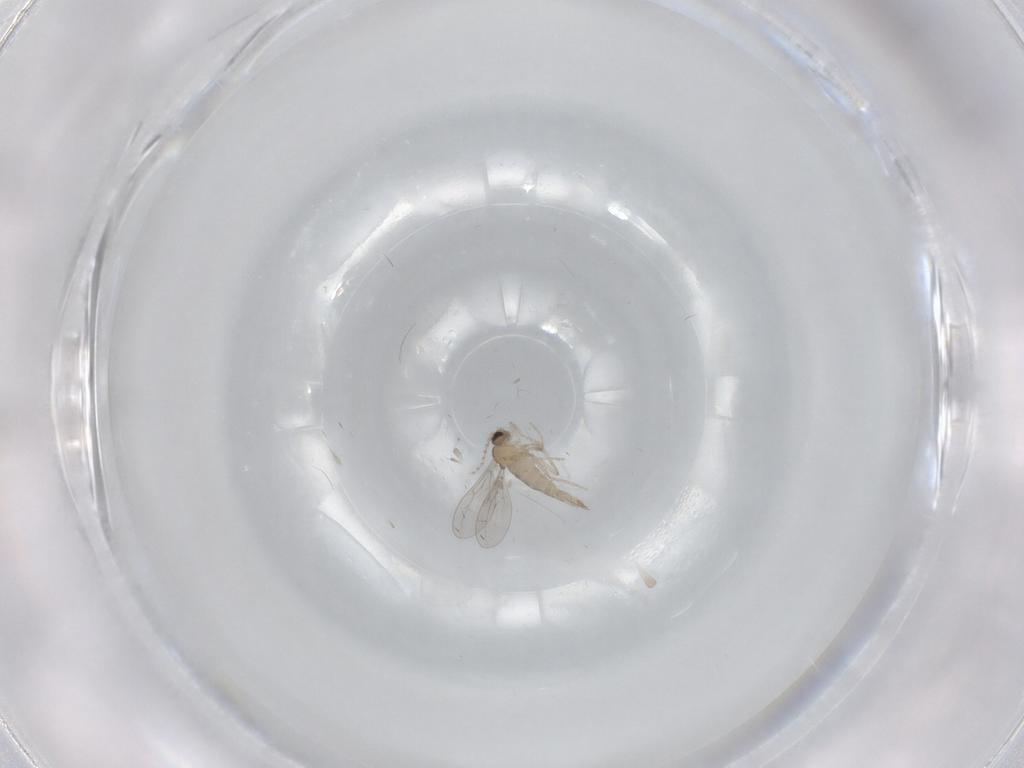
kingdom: Animalia
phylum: Arthropoda
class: Insecta
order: Diptera
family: Cecidomyiidae
